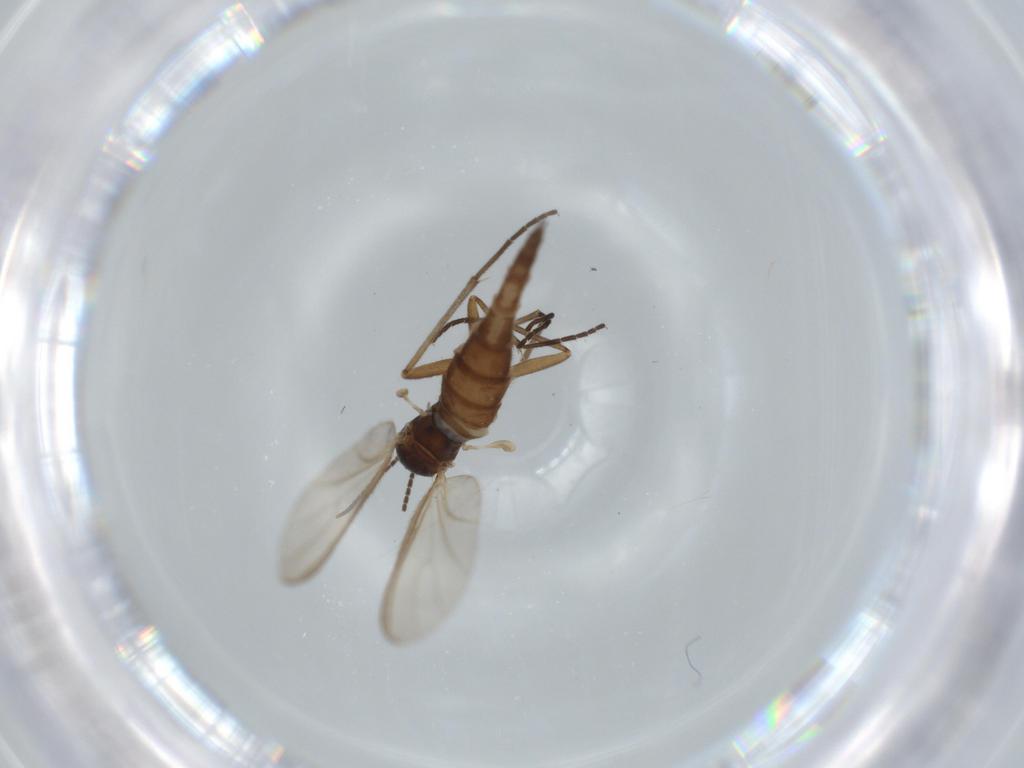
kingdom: Animalia
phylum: Arthropoda
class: Insecta
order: Diptera
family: Sciaridae
